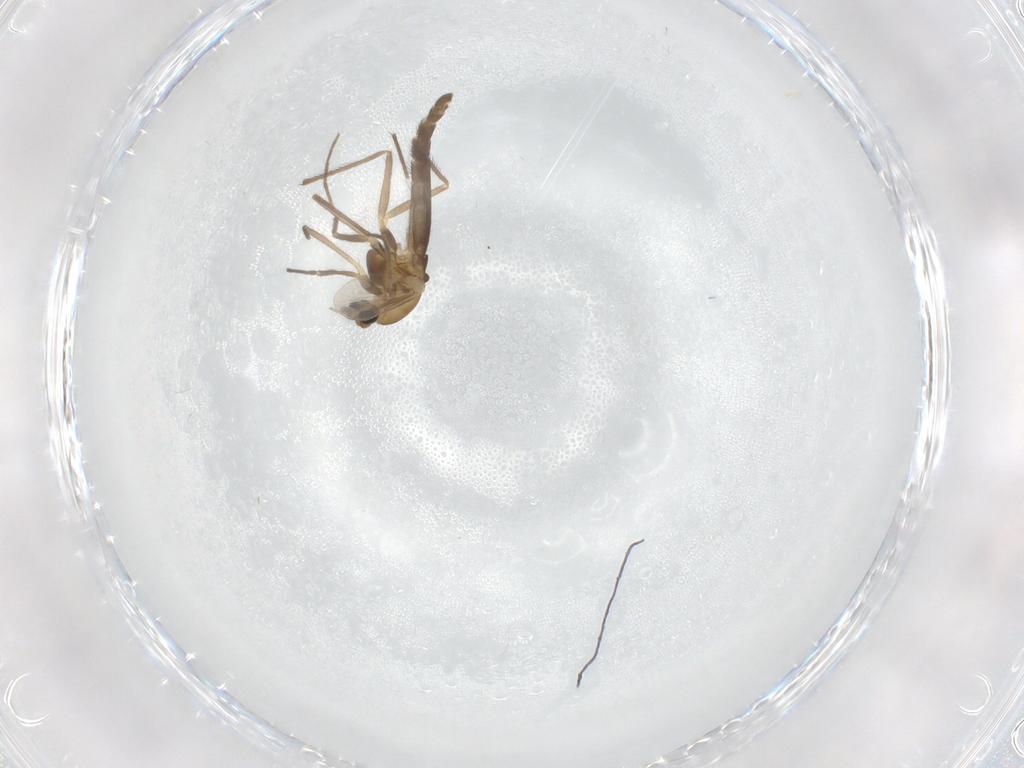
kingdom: Animalia
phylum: Arthropoda
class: Insecta
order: Diptera
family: Chironomidae
